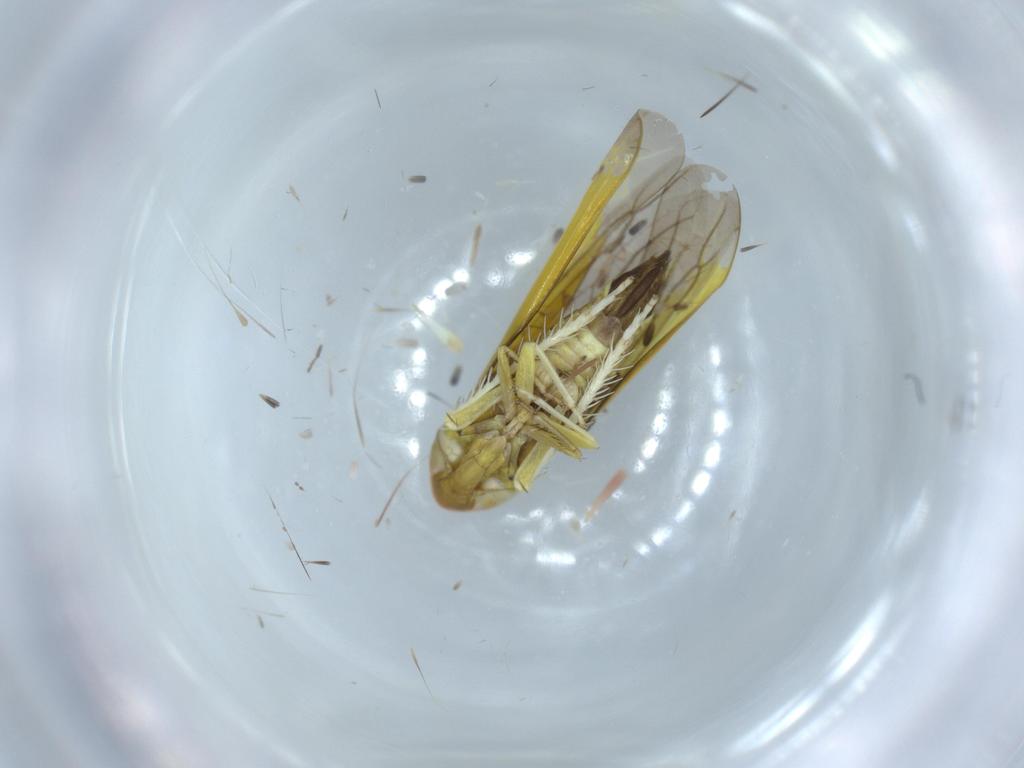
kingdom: Animalia
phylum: Arthropoda
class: Insecta
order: Hemiptera
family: Cicadellidae
